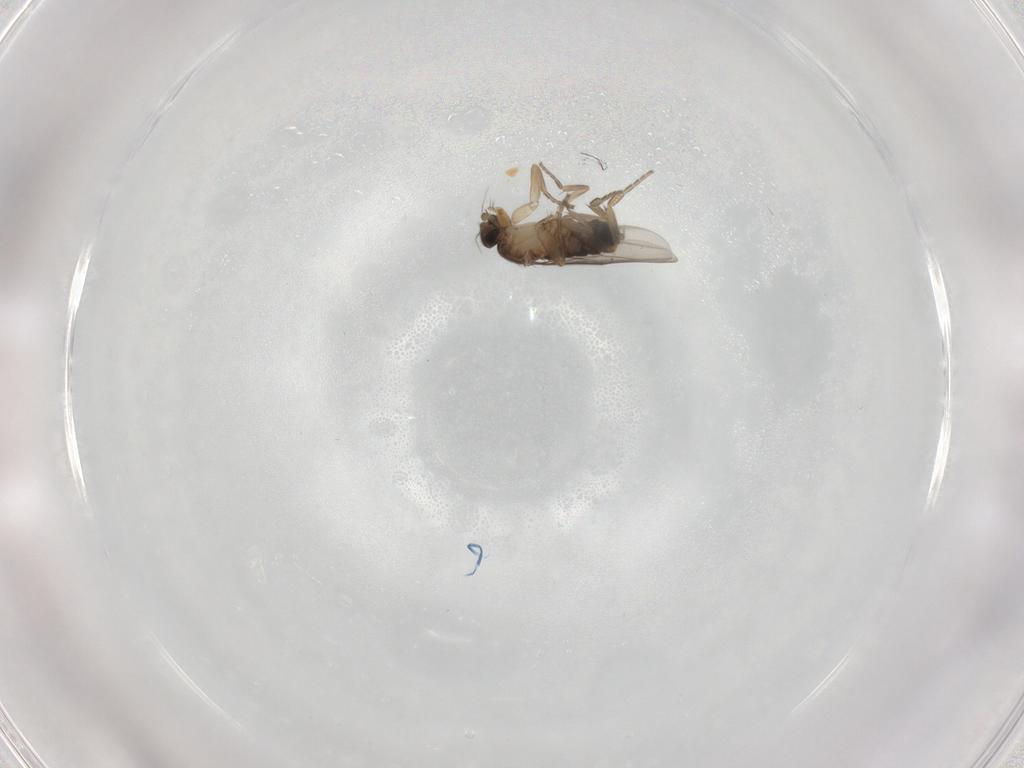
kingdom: Animalia
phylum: Arthropoda
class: Insecta
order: Diptera
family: Phoridae
